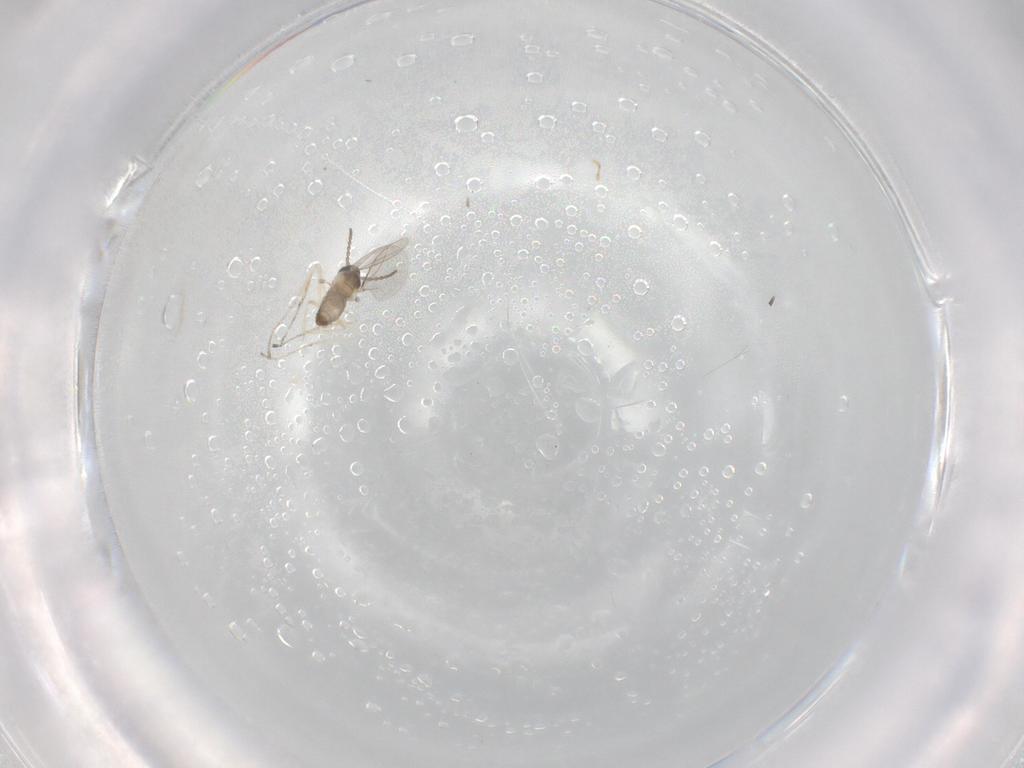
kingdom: Animalia
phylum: Arthropoda
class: Insecta
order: Diptera
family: Cecidomyiidae
